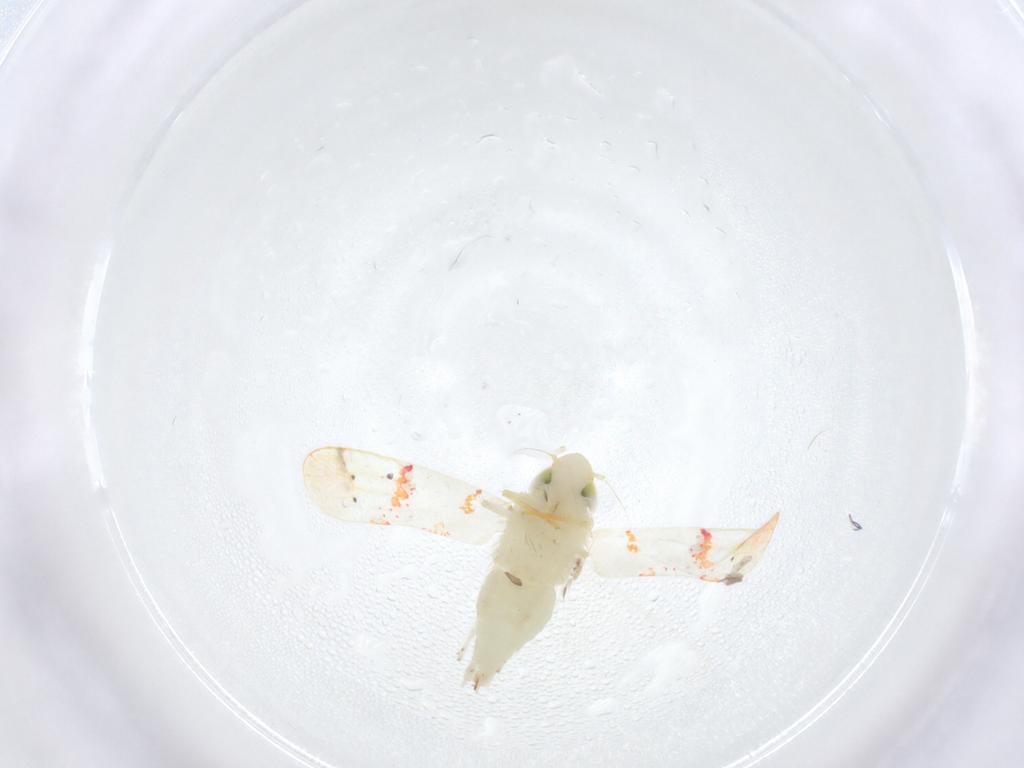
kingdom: Animalia
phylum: Arthropoda
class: Insecta
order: Hemiptera
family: Cicadellidae
